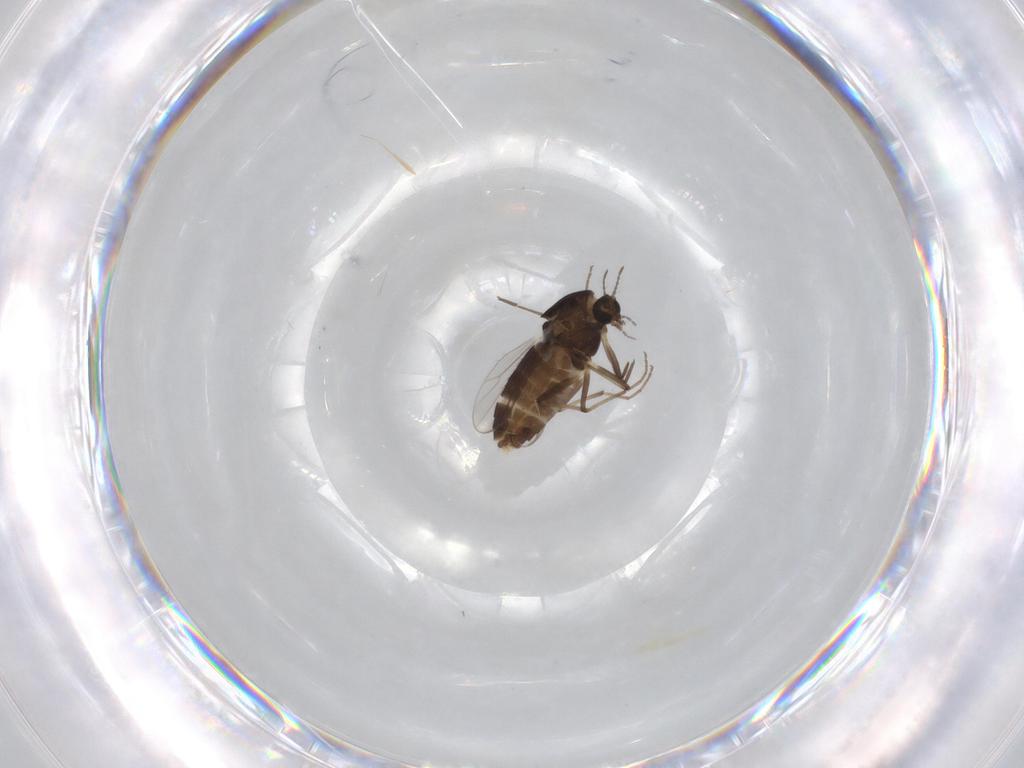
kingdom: Animalia
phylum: Arthropoda
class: Insecta
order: Diptera
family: Chironomidae
